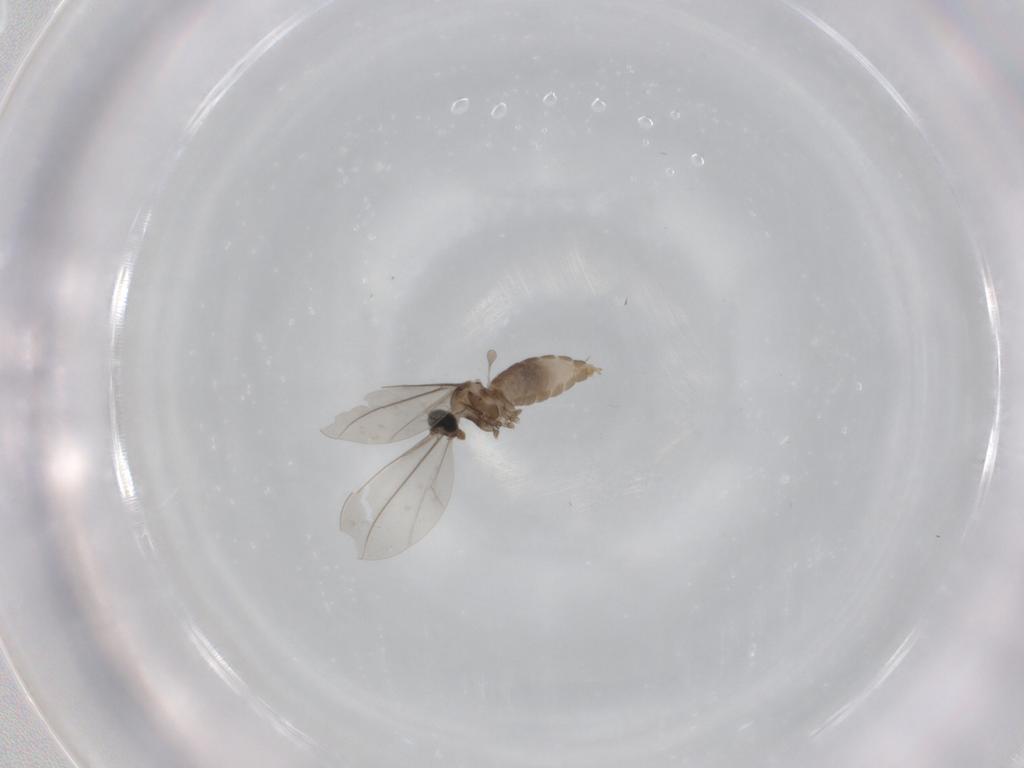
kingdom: Animalia
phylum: Arthropoda
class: Insecta
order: Diptera
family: Cecidomyiidae
